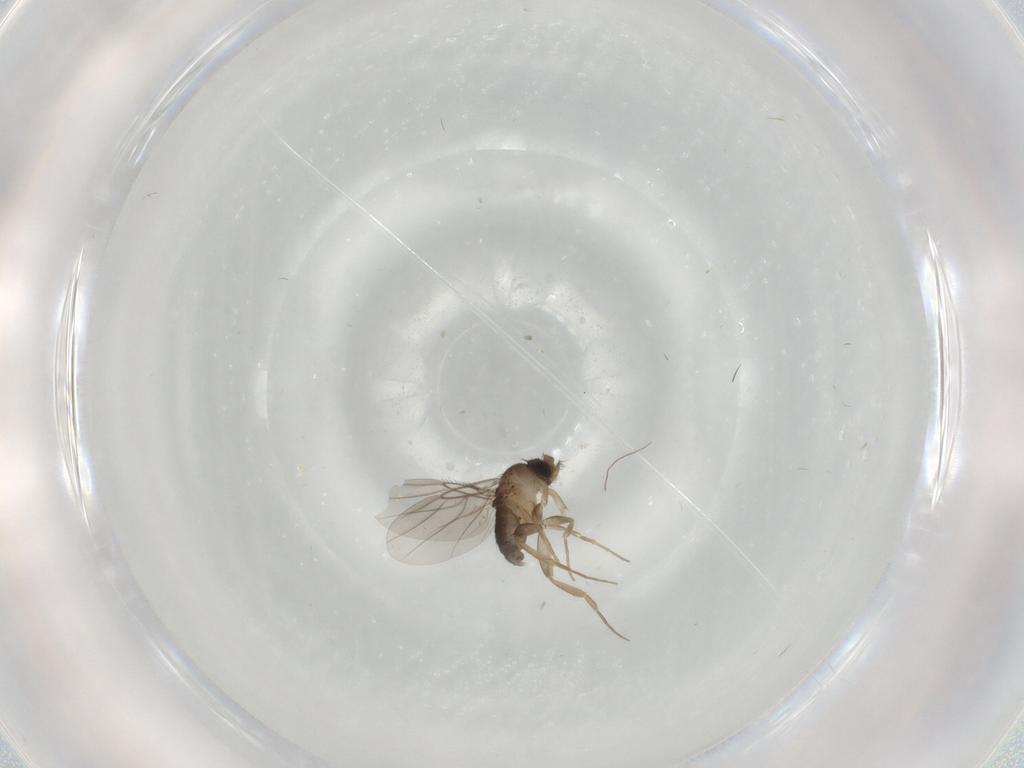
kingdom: Animalia
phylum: Arthropoda
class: Insecta
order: Diptera
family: Phoridae
